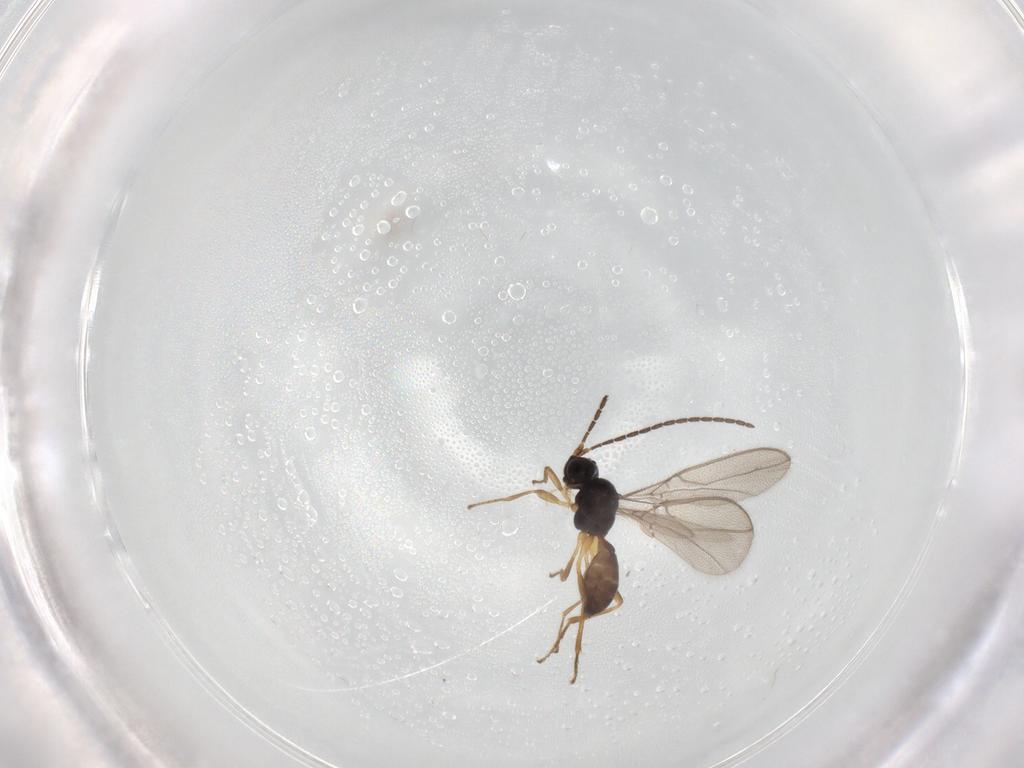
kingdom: Animalia
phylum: Arthropoda
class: Insecta
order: Hymenoptera
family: Braconidae
